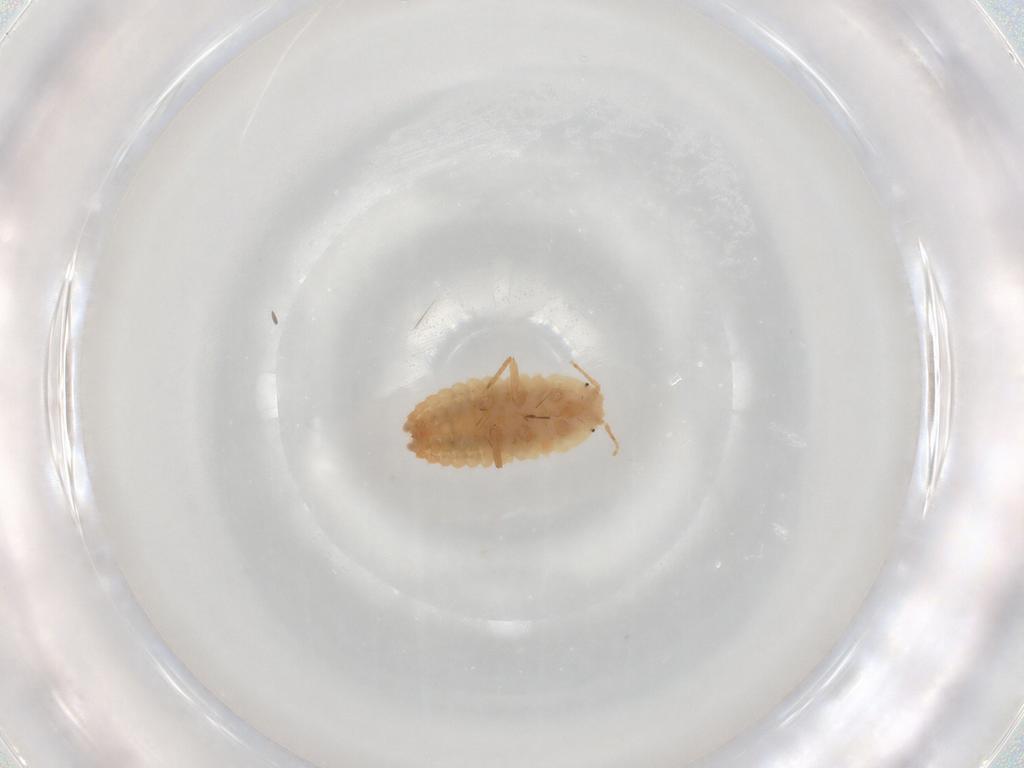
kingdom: Animalia
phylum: Arthropoda
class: Insecta
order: Hemiptera
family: Pseudococcidae
